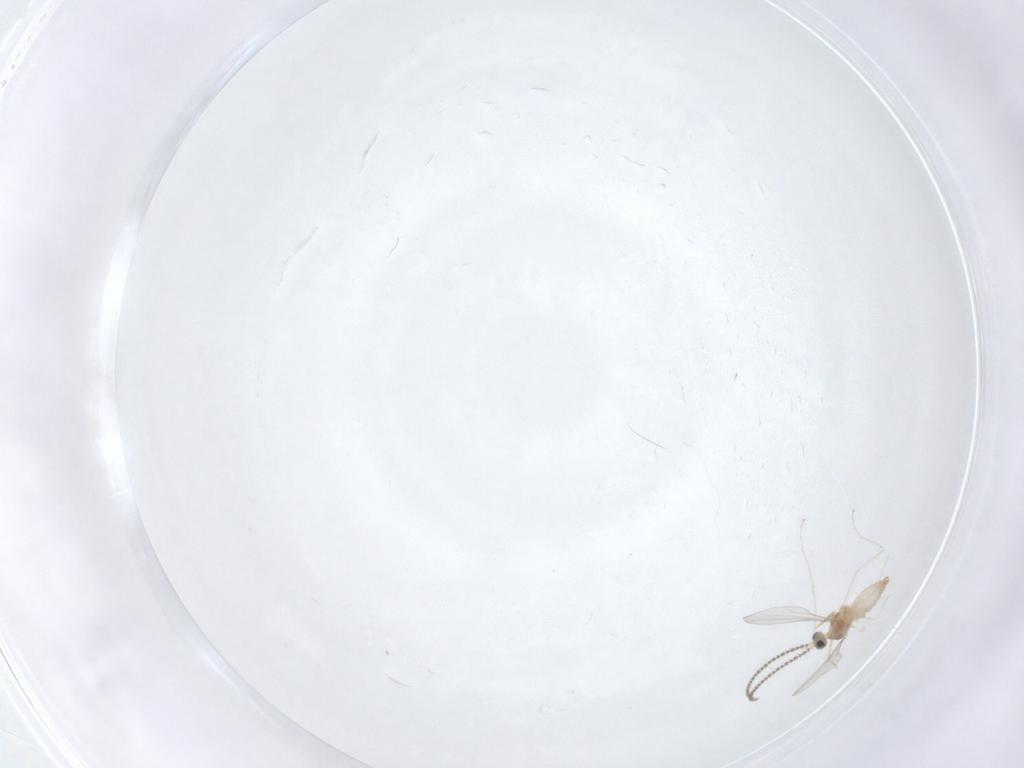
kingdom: Animalia
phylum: Arthropoda
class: Insecta
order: Diptera
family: Cecidomyiidae
